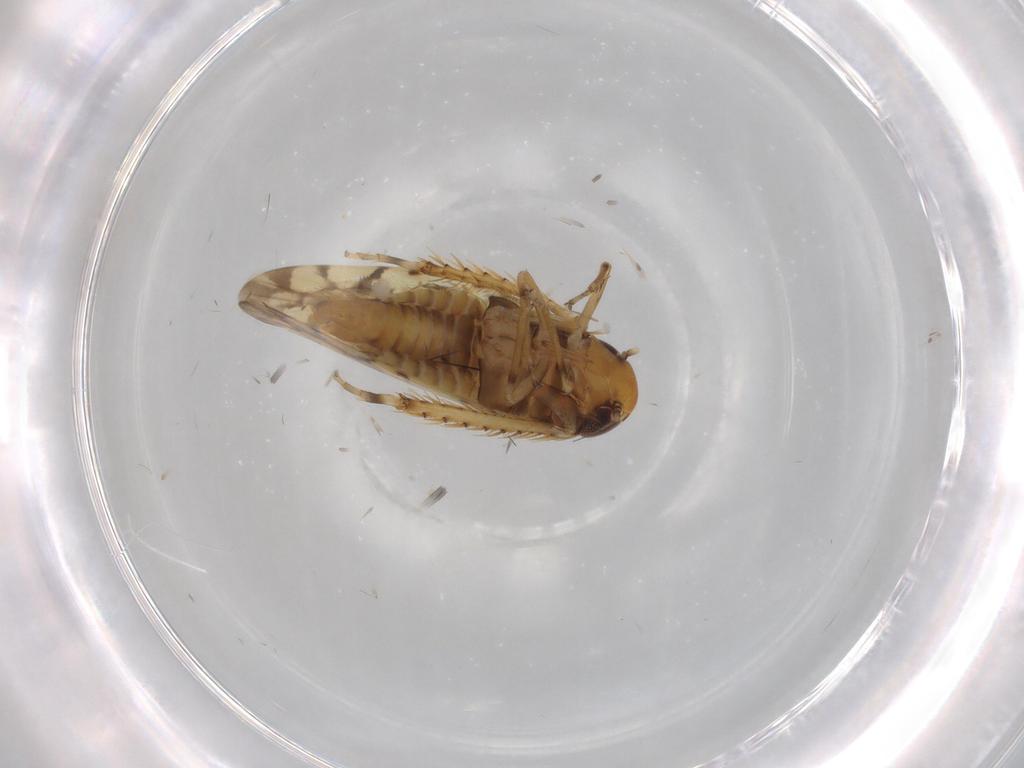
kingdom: Animalia
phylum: Arthropoda
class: Insecta
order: Hemiptera
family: Cicadellidae
